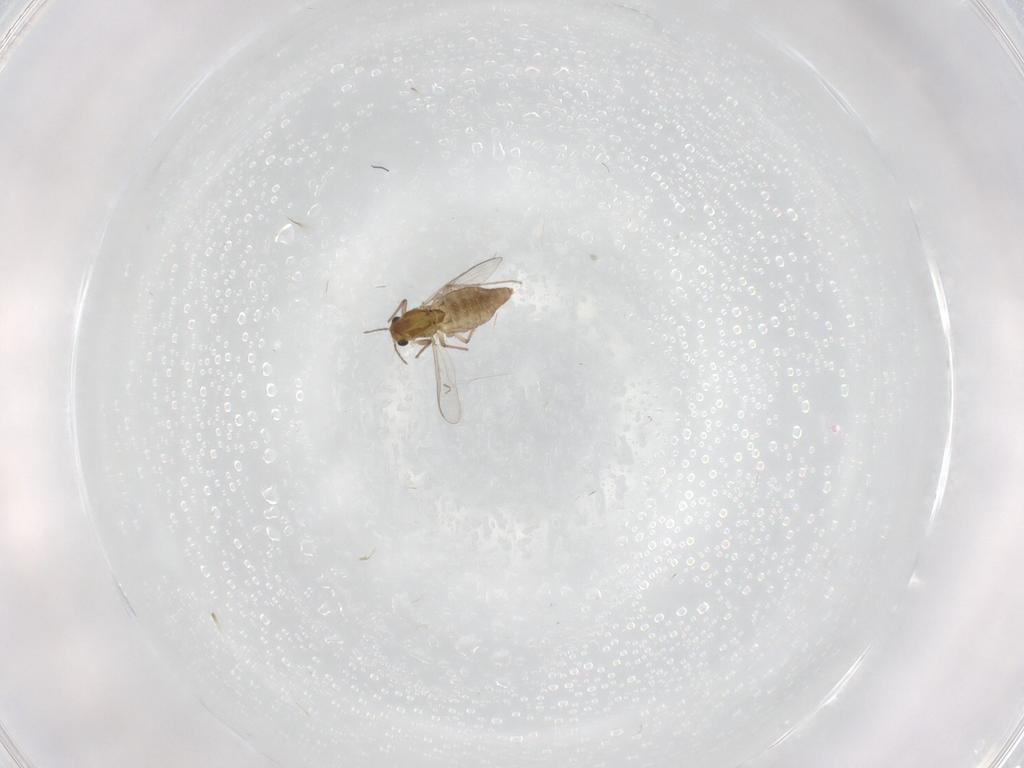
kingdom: Animalia
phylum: Arthropoda
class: Insecta
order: Diptera
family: Chironomidae
